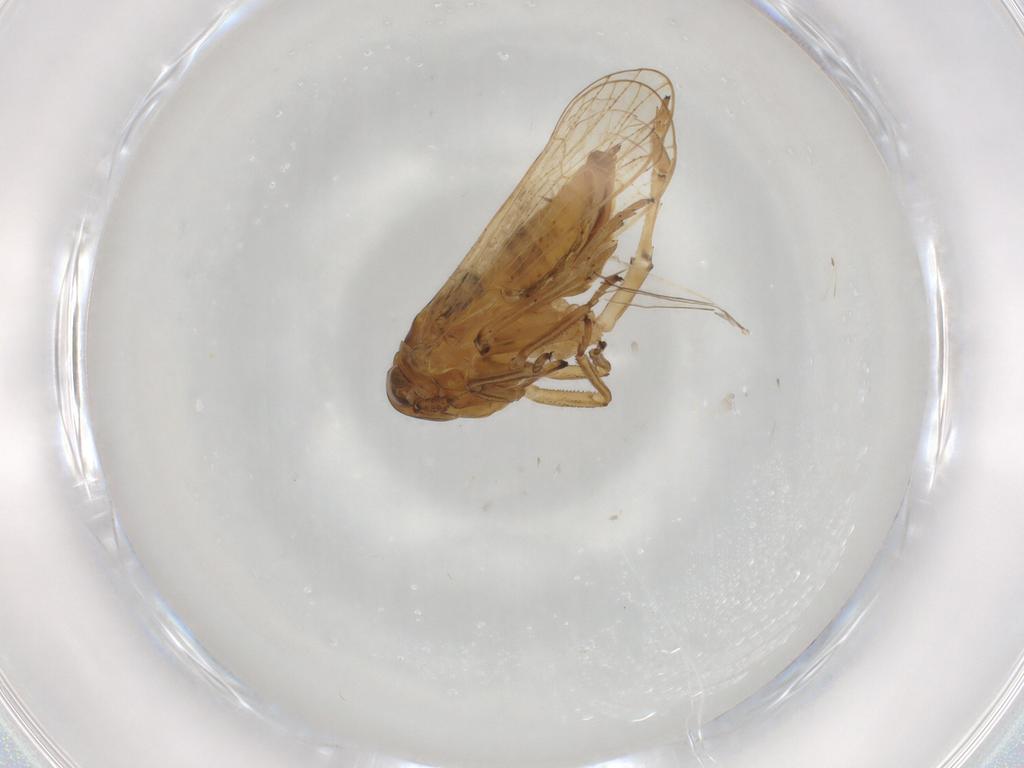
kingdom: Animalia
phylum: Arthropoda
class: Insecta
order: Hemiptera
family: Delphacidae
